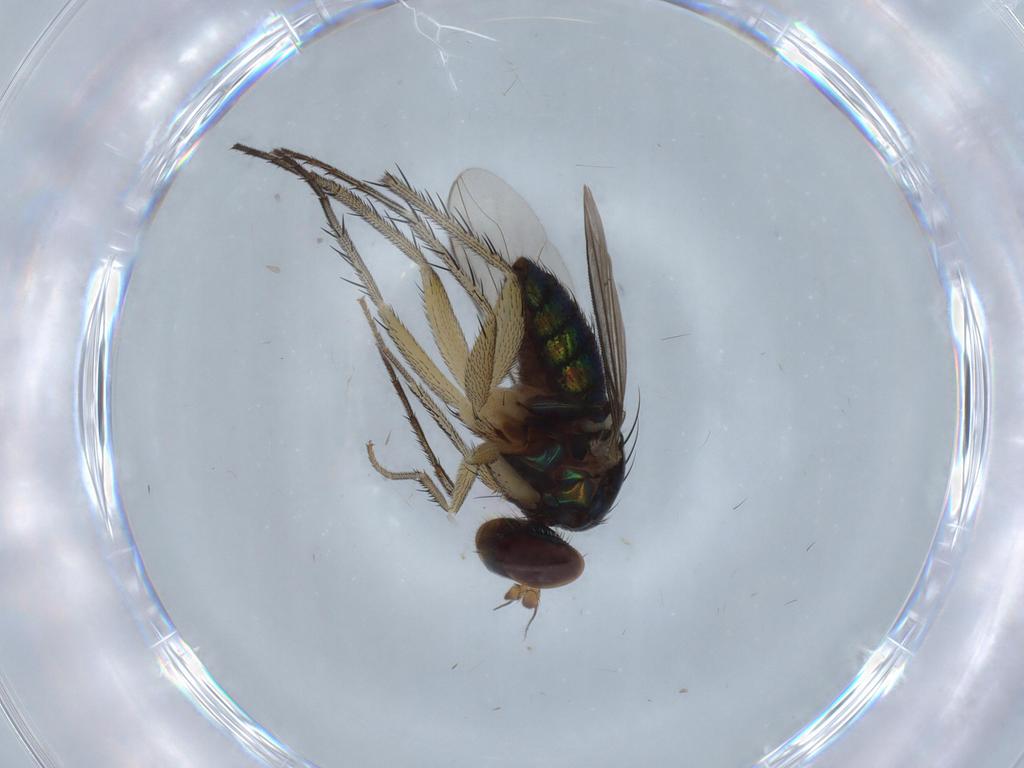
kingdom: Animalia
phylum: Arthropoda
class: Insecta
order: Diptera
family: Dolichopodidae
